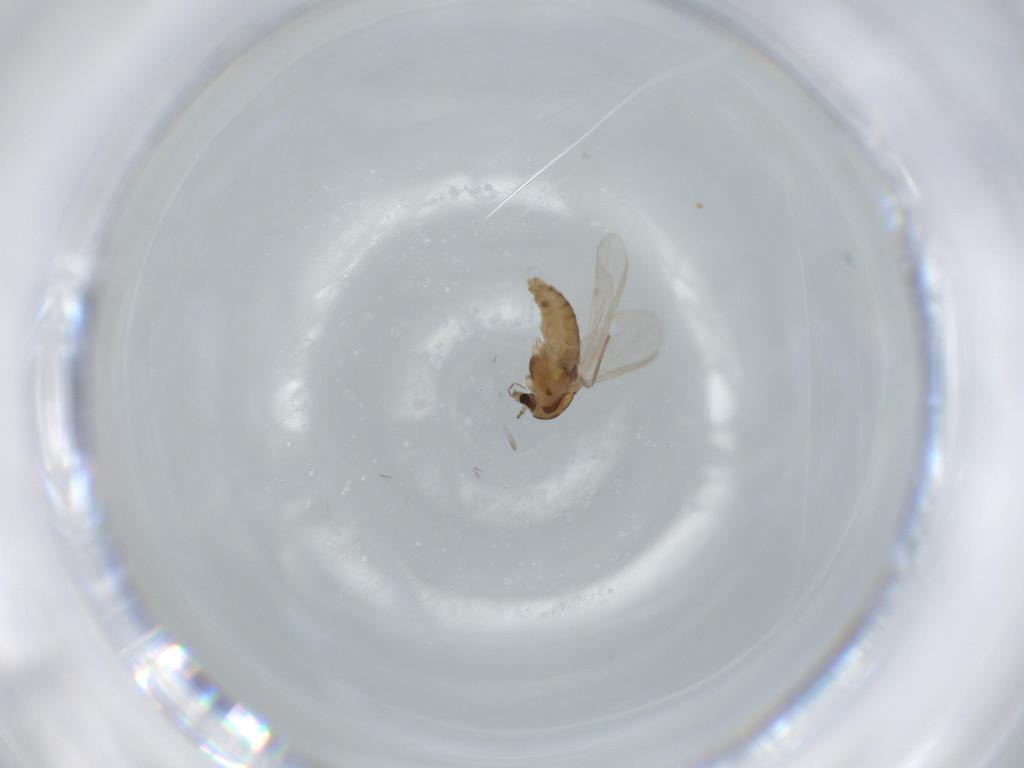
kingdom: Animalia
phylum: Arthropoda
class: Insecta
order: Diptera
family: Chironomidae
